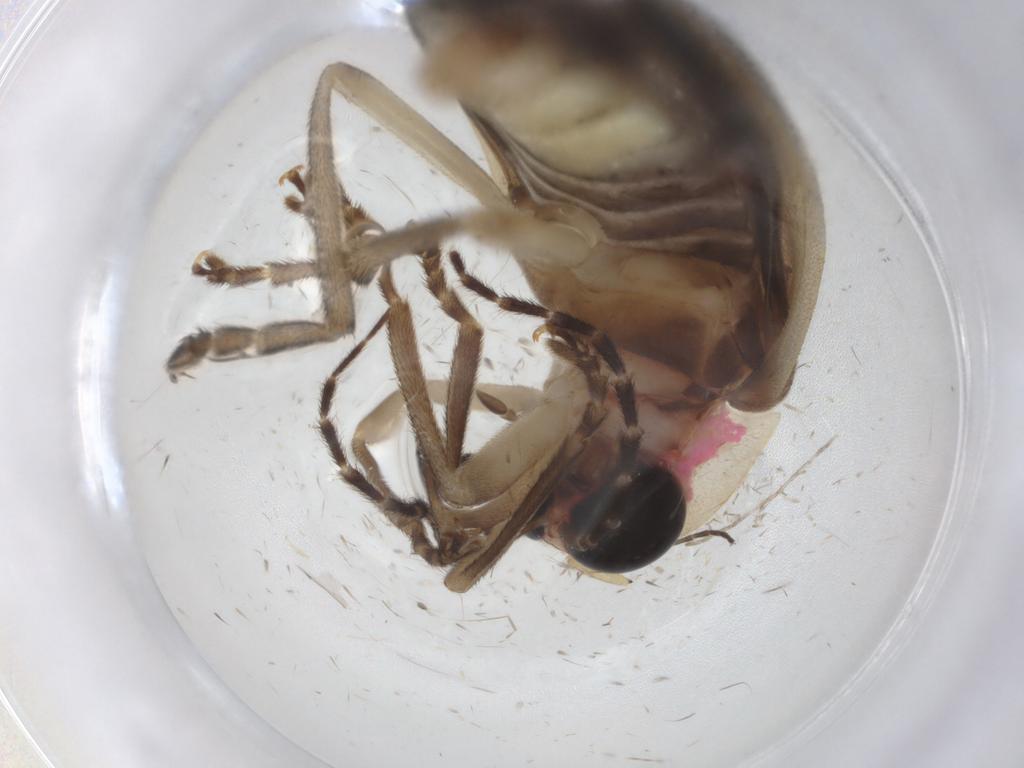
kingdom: Animalia
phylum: Arthropoda
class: Insecta
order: Coleoptera
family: Lampyridae
